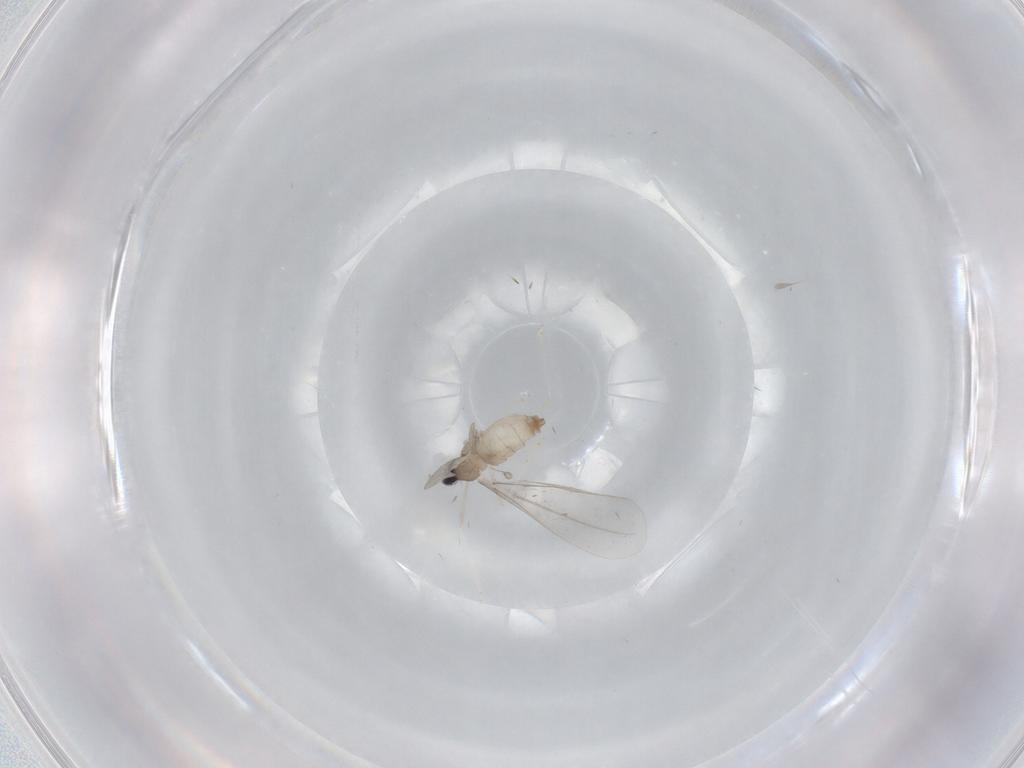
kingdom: Animalia
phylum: Arthropoda
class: Insecta
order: Diptera
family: Cecidomyiidae
